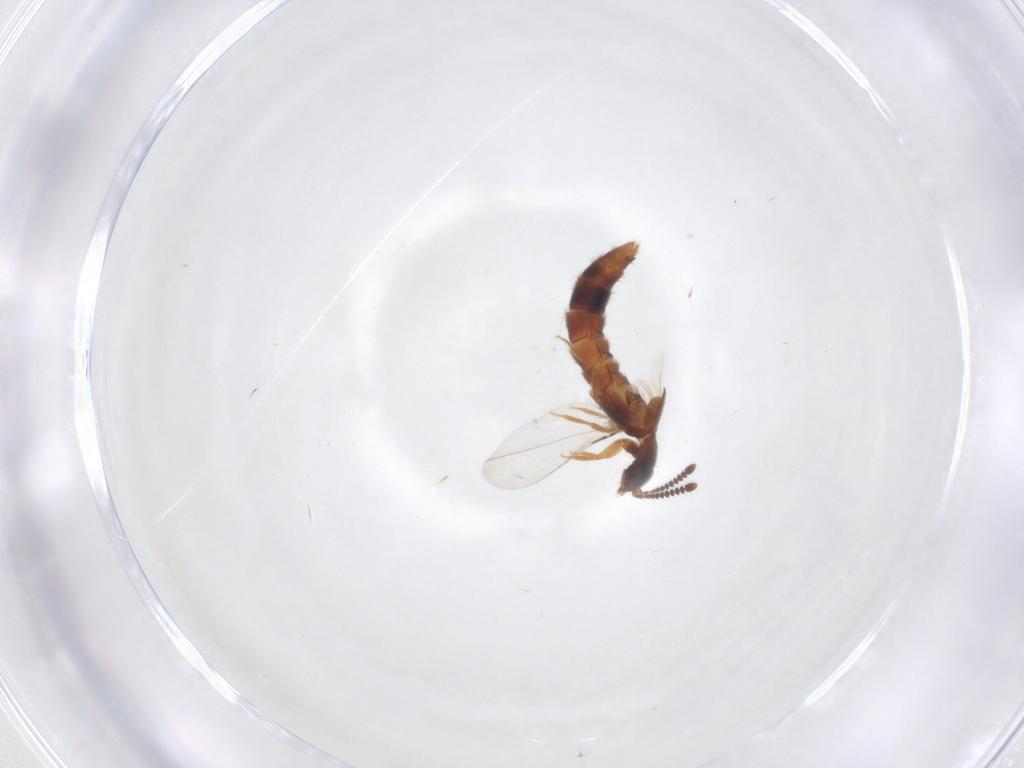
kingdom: Animalia
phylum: Arthropoda
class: Insecta
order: Coleoptera
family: Staphylinidae
